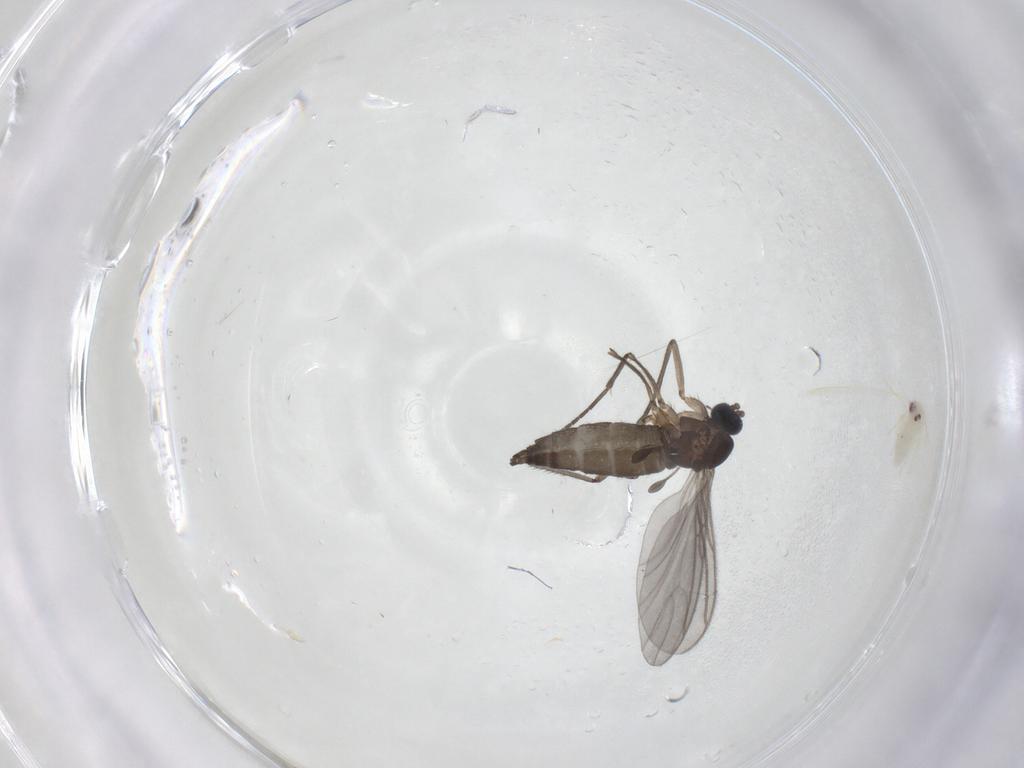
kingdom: Animalia
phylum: Arthropoda
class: Insecta
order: Diptera
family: Sciaridae
